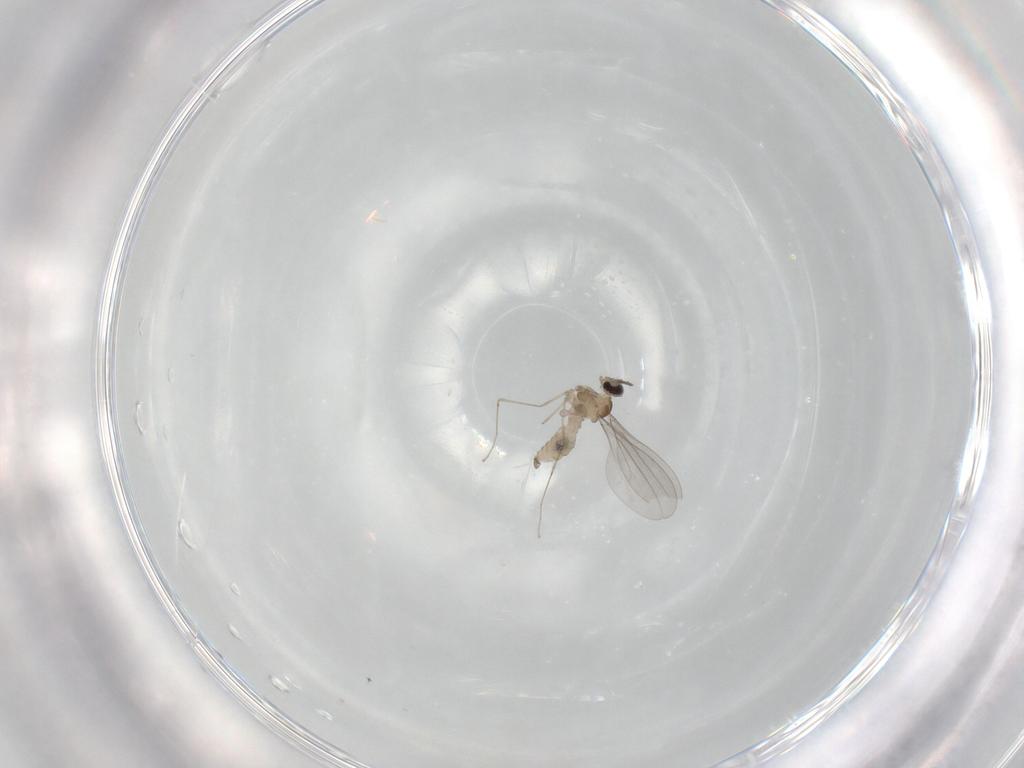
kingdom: Animalia
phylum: Arthropoda
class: Insecta
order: Diptera
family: Cecidomyiidae
